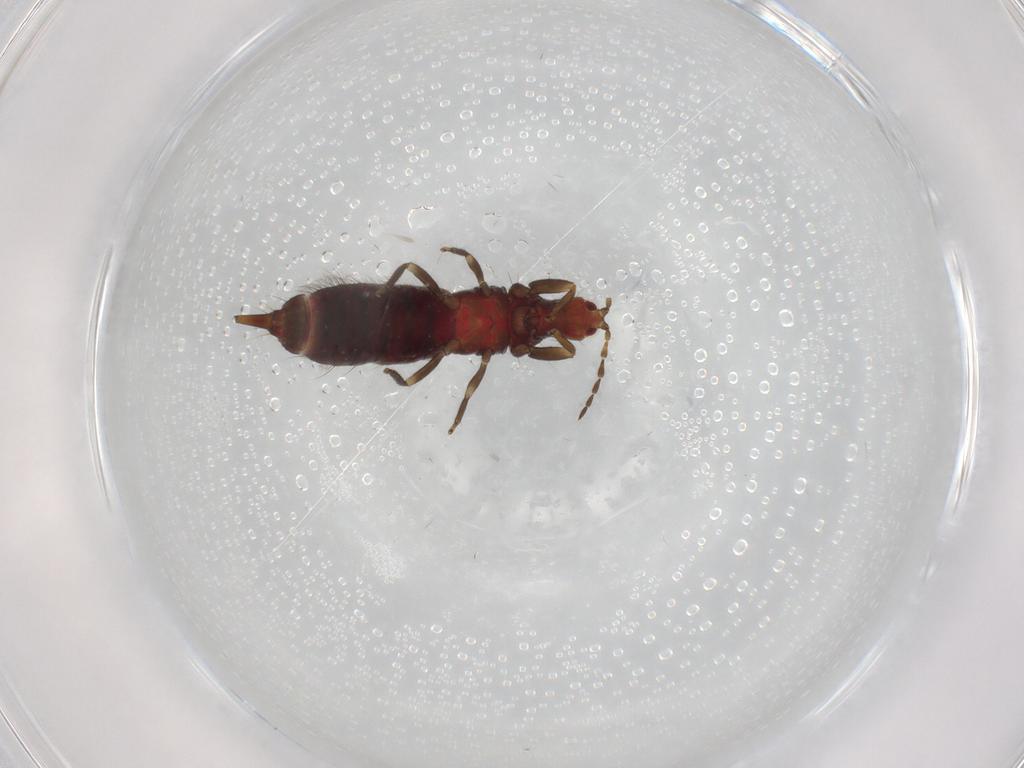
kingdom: Animalia
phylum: Arthropoda
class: Insecta
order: Thysanoptera
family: Phlaeothripidae
